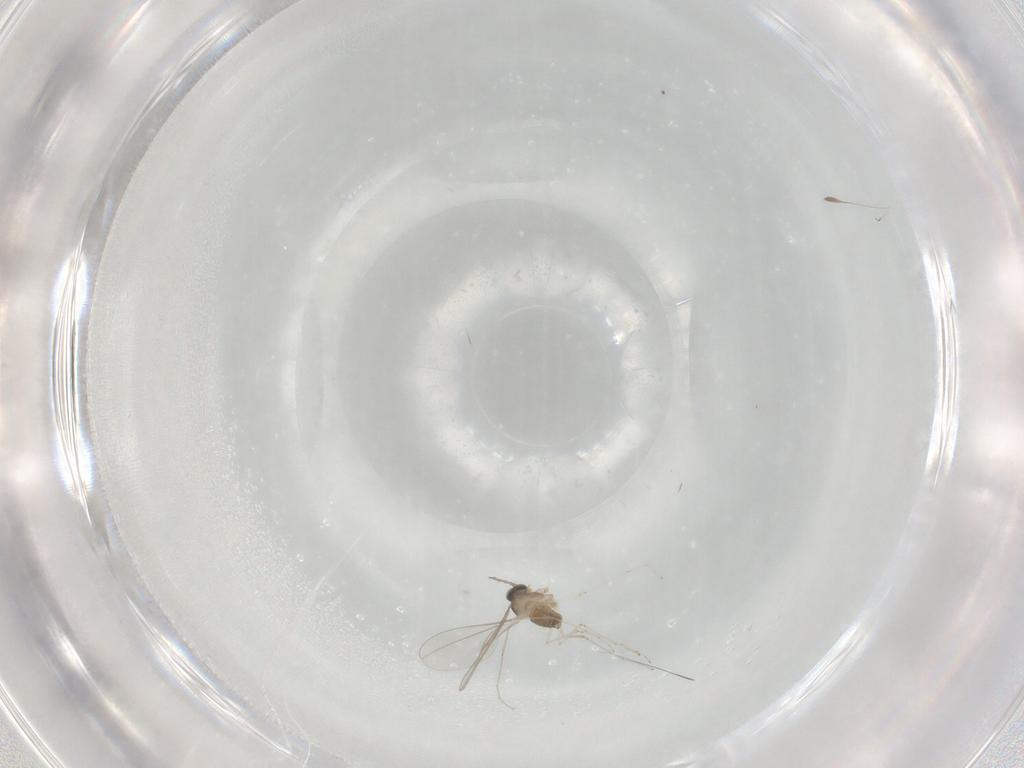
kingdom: Animalia
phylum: Arthropoda
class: Insecta
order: Diptera
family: Cecidomyiidae
